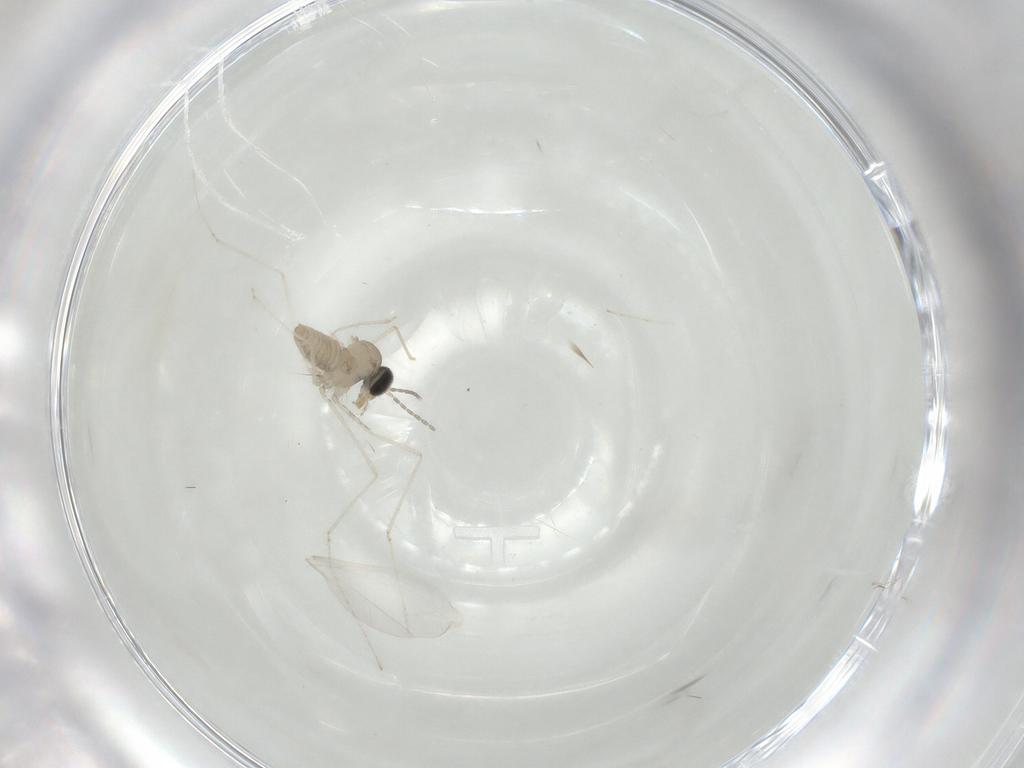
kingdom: Animalia
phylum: Arthropoda
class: Insecta
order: Diptera
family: Cecidomyiidae
